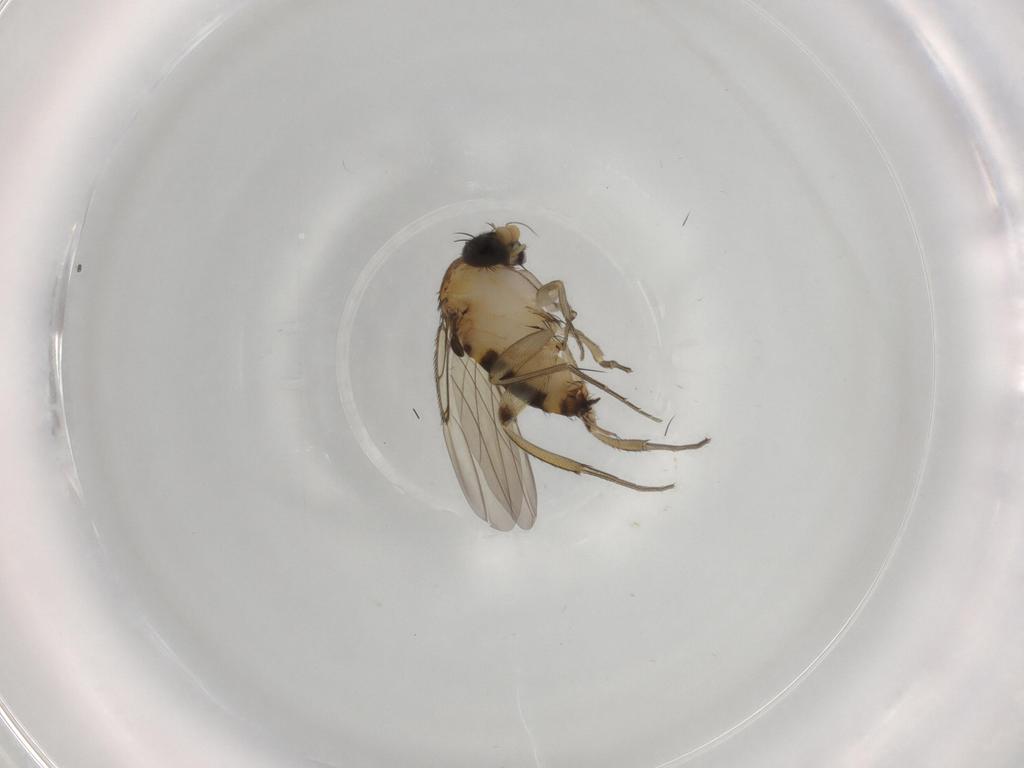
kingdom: Animalia
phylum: Arthropoda
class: Insecta
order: Diptera
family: Phoridae
